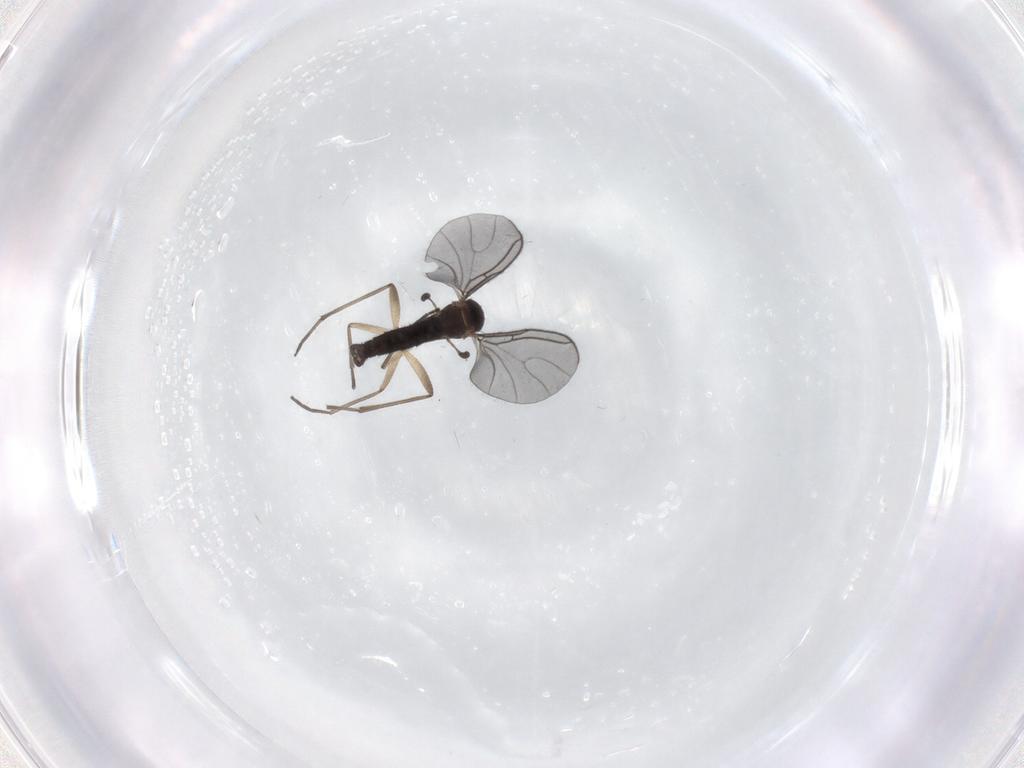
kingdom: Animalia
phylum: Arthropoda
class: Insecta
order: Diptera
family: Sciaridae
